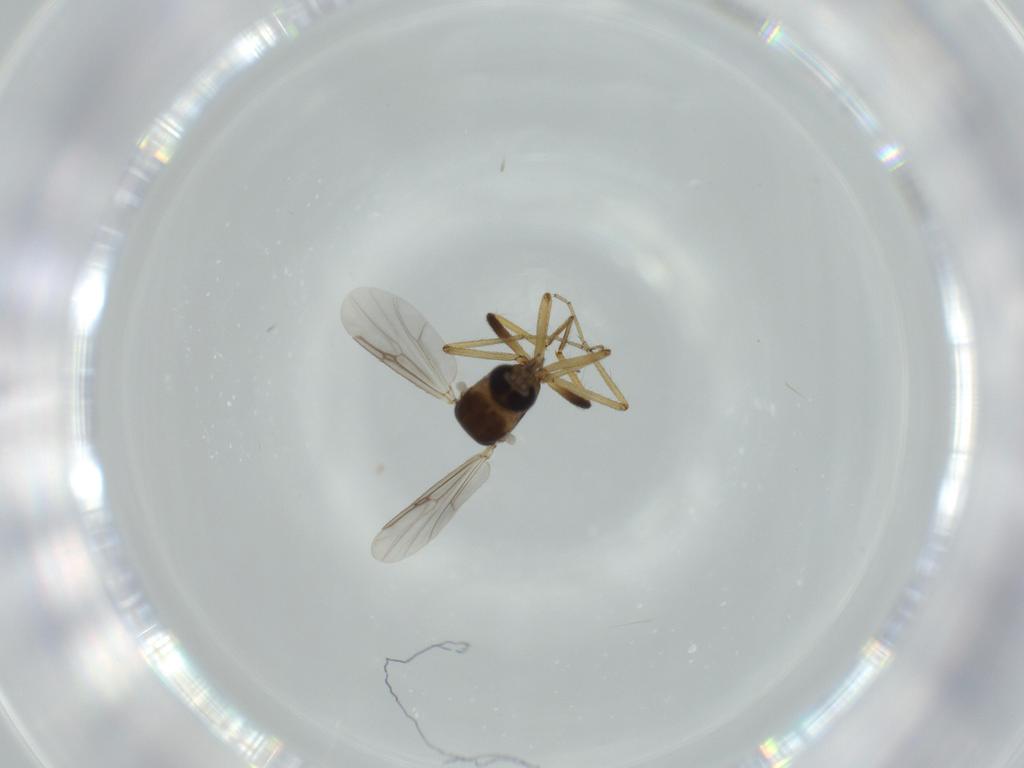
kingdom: Animalia
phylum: Arthropoda
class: Insecta
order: Diptera
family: Ceratopogonidae
